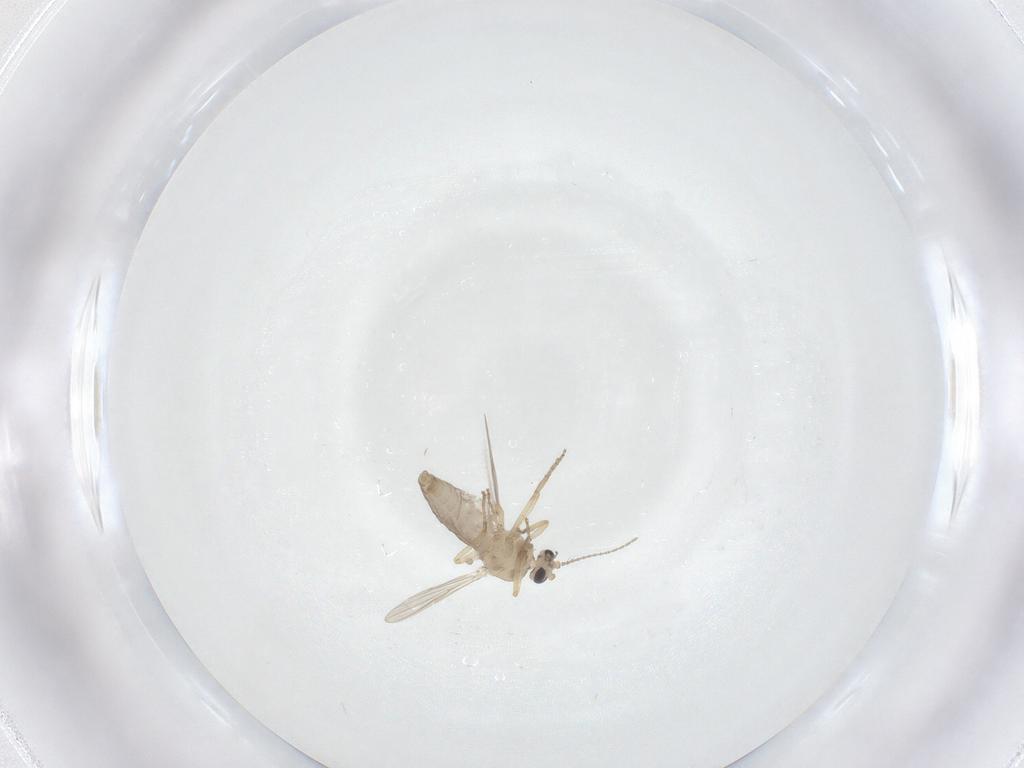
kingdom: Animalia
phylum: Arthropoda
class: Insecta
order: Diptera
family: Ceratopogonidae
